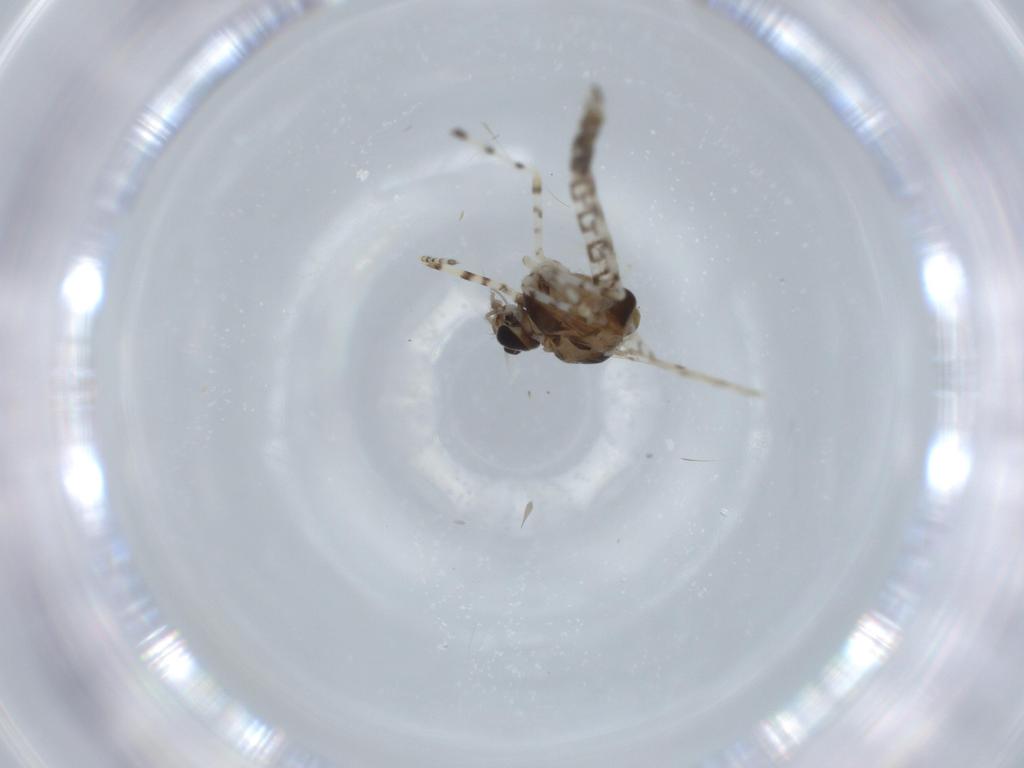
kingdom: Animalia
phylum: Arthropoda
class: Insecta
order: Diptera
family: Chironomidae
